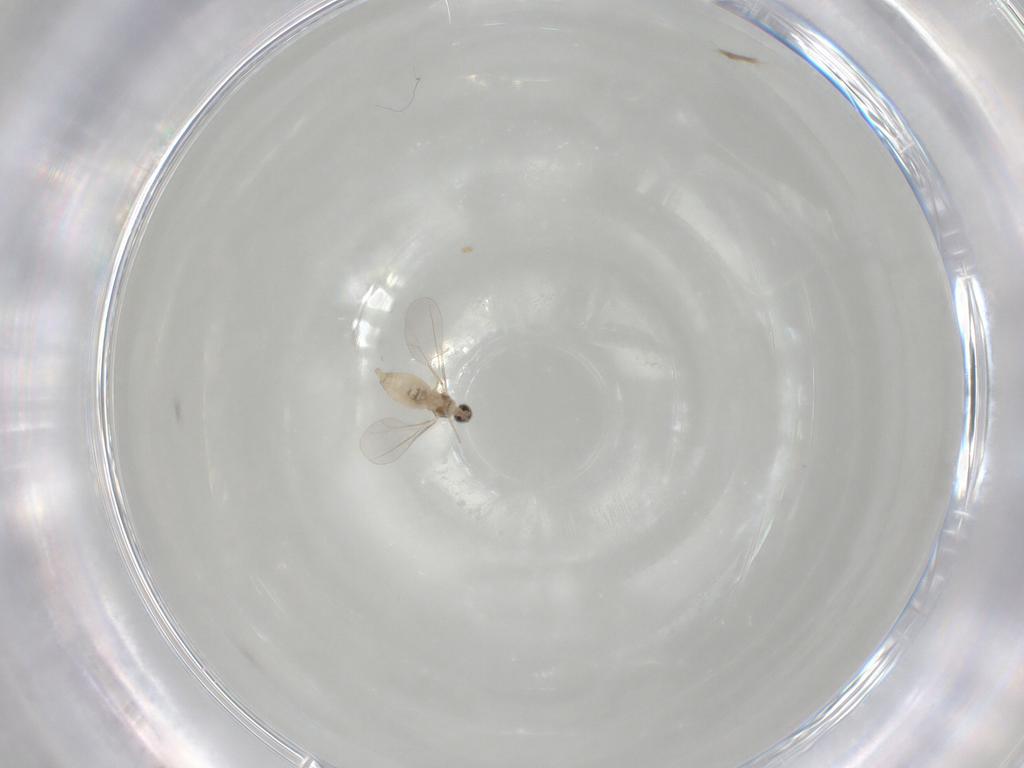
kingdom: Animalia
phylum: Arthropoda
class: Insecta
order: Diptera
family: Cecidomyiidae
